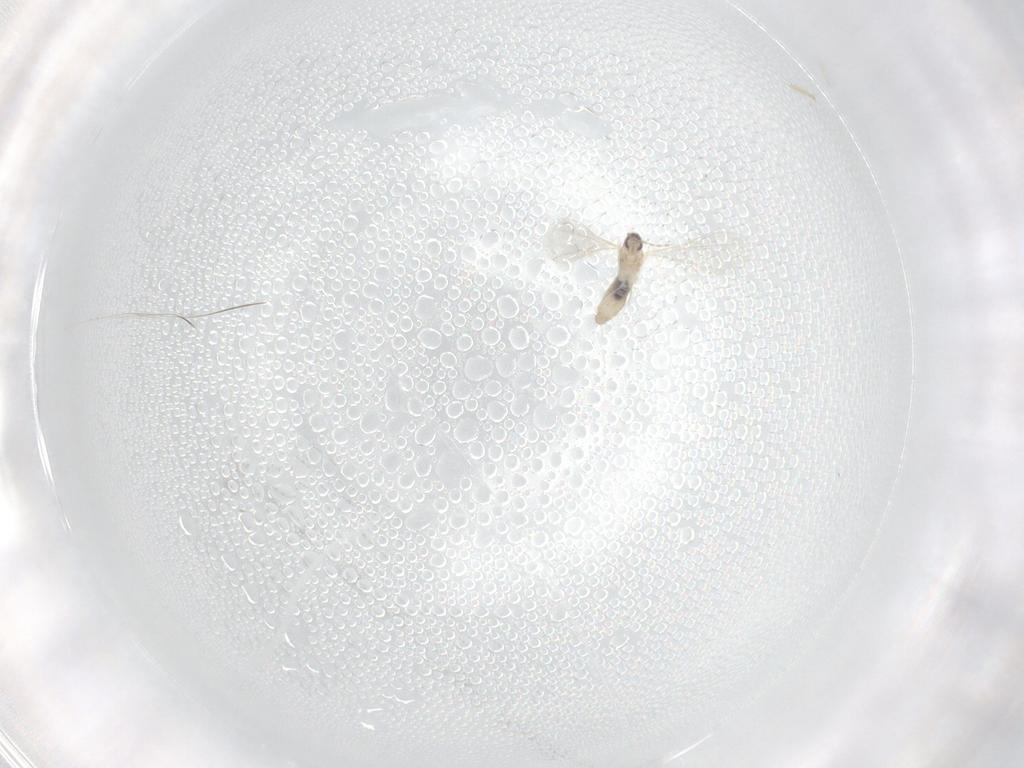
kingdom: Animalia
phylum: Arthropoda
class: Insecta
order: Diptera
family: Cecidomyiidae
